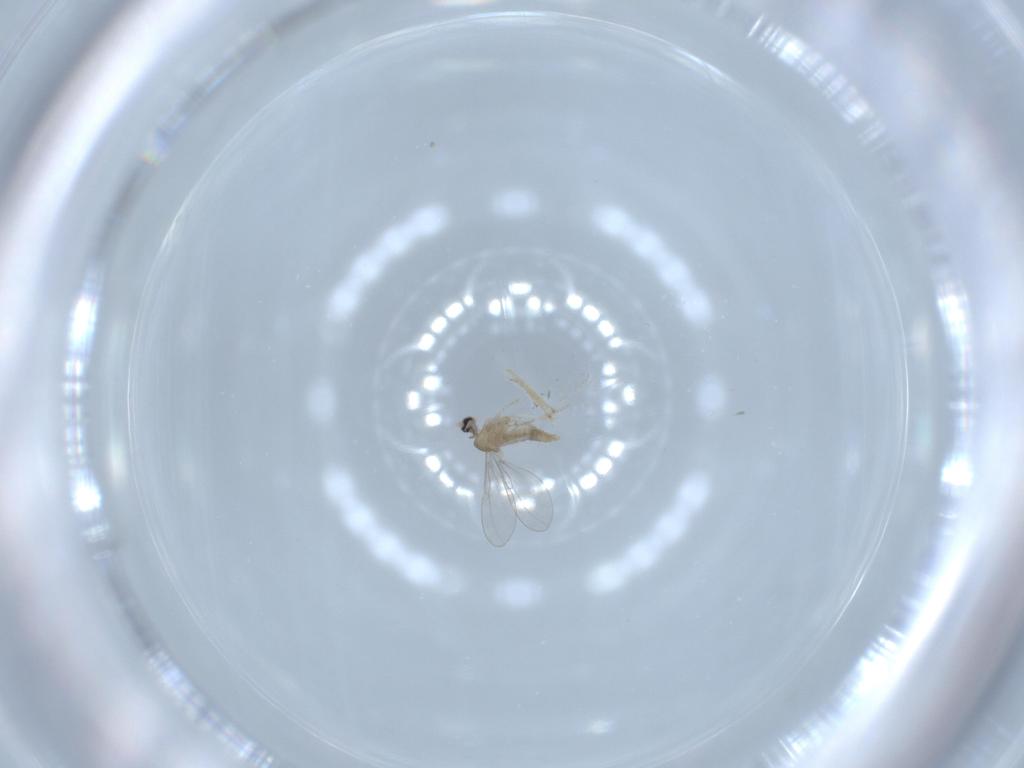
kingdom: Animalia
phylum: Arthropoda
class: Insecta
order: Diptera
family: Cecidomyiidae
